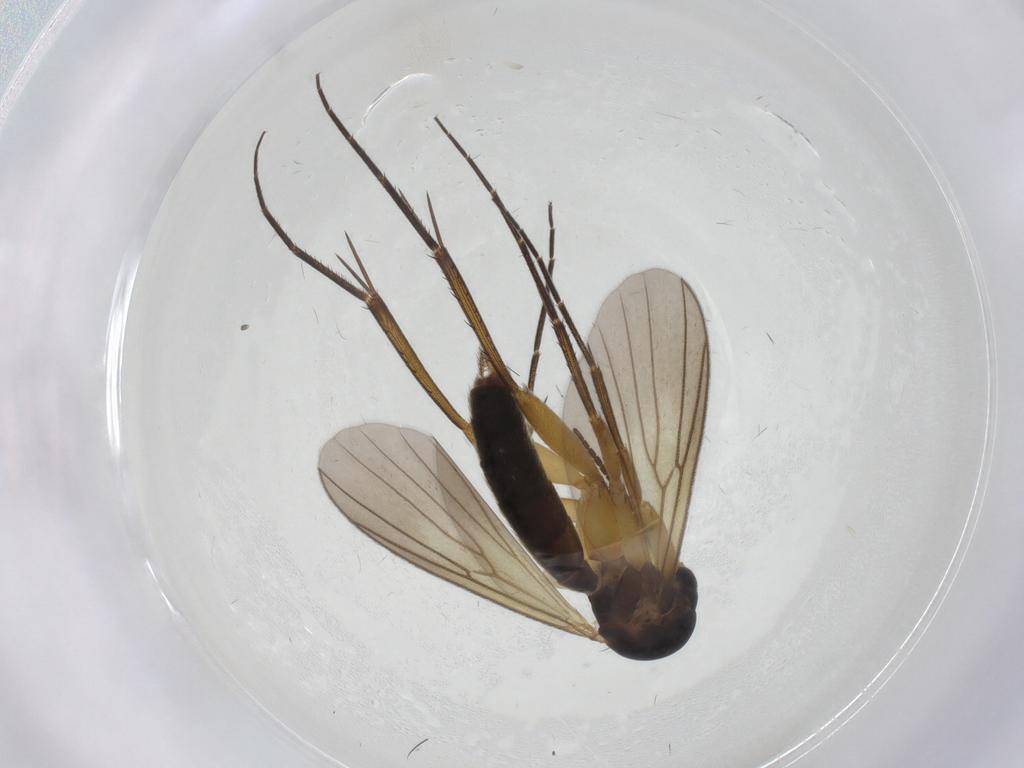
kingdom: Animalia
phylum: Arthropoda
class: Insecta
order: Diptera
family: Mycetophilidae
